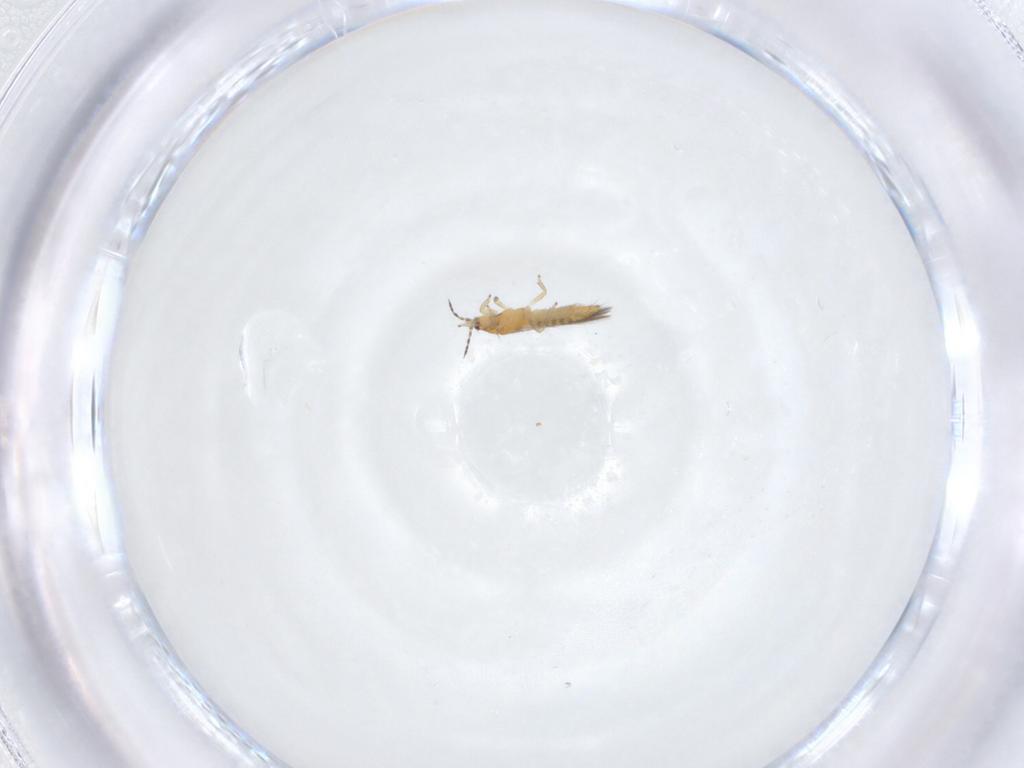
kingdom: Animalia
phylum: Arthropoda
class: Insecta
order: Thysanoptera
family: Thripidae
